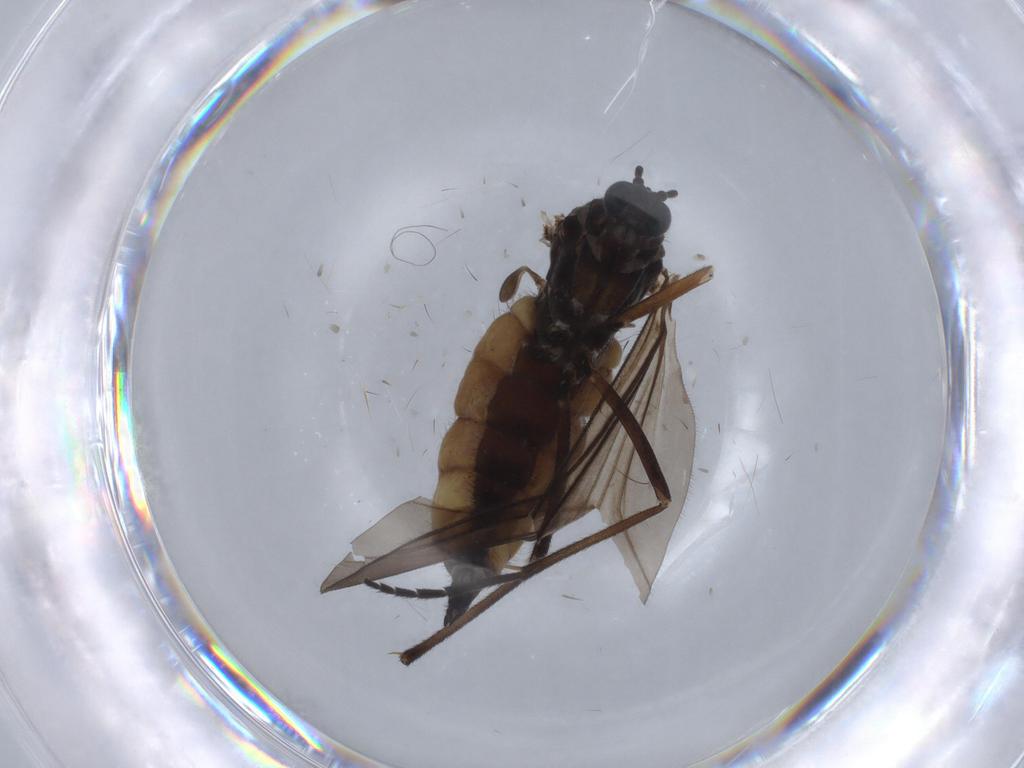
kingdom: Animalia
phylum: Arthropoda
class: Insecta
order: Diptera
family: Sciaridae
